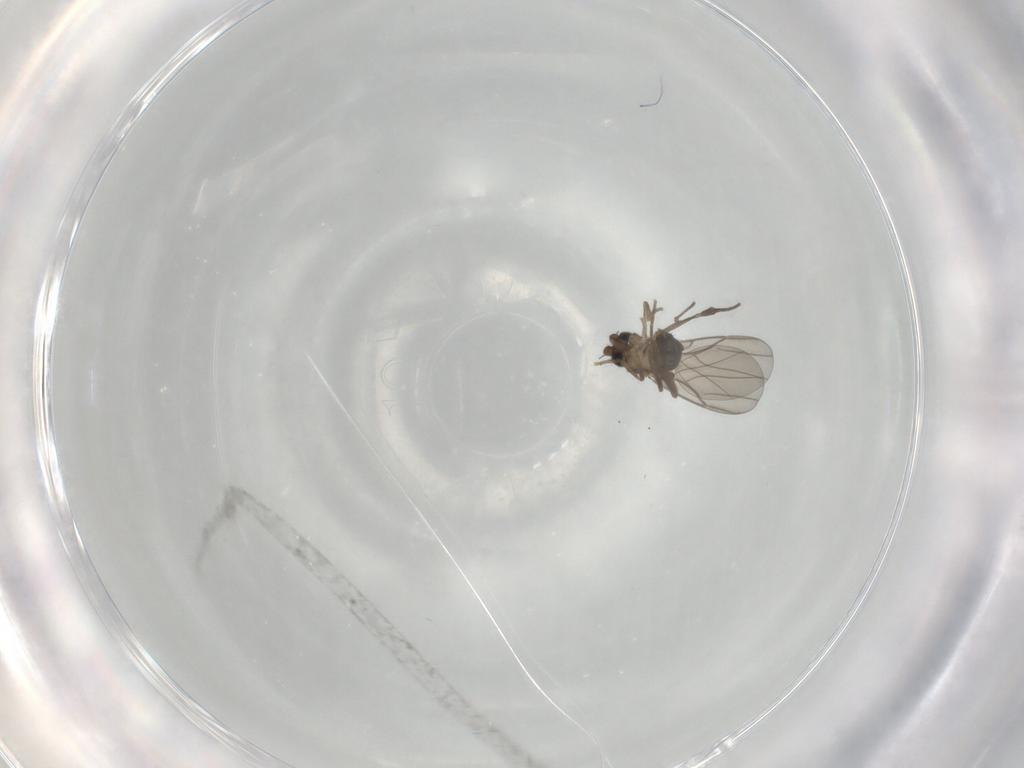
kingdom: Animalia
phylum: Arthropoda
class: Insecta
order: Diptera
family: Phoridae
